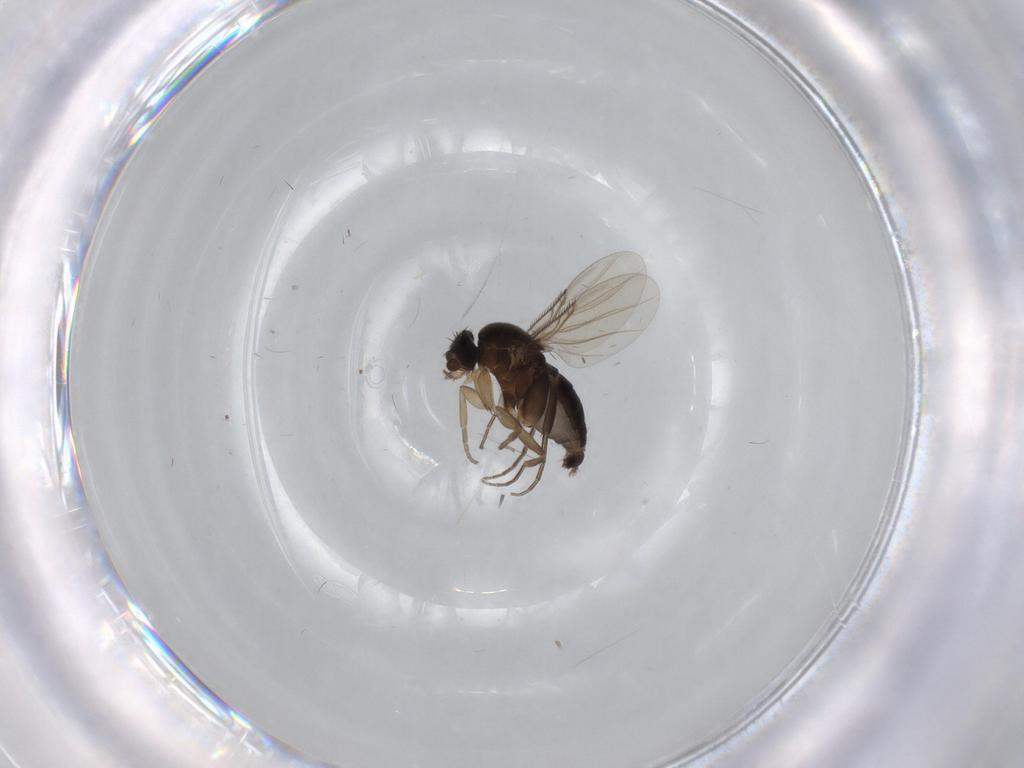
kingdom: Animalia
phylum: Arthropoda
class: Insecta
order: Diptera
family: Phoridae
